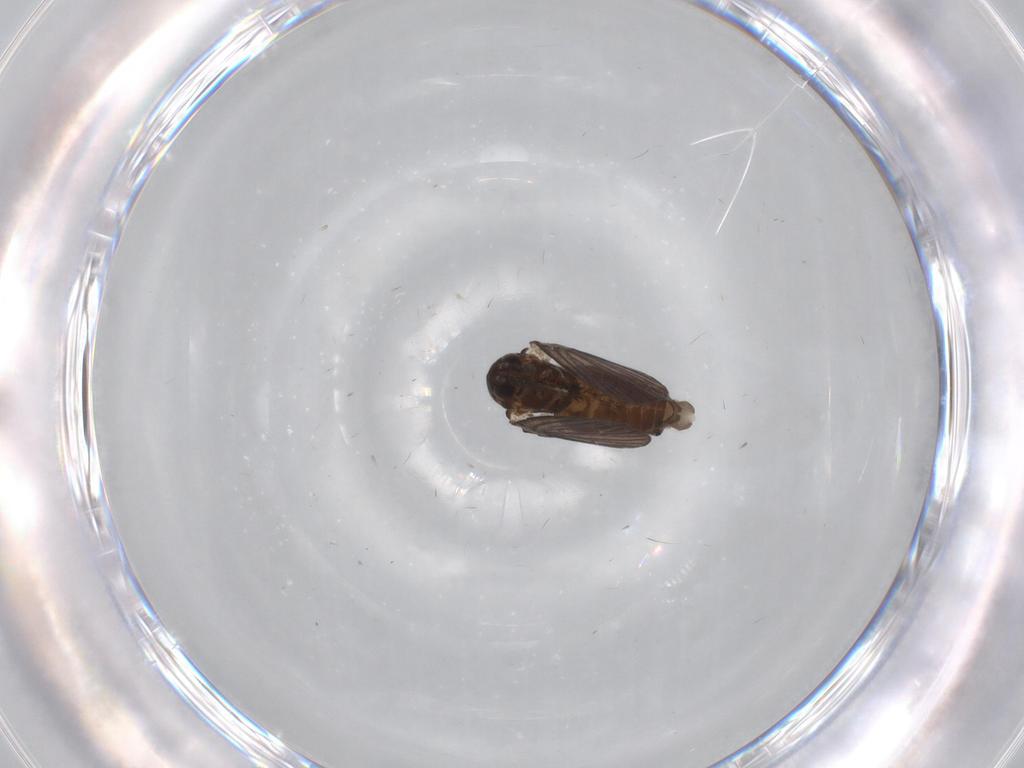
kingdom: Animalia
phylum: Arthropoda
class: Insecta
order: Diptera
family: Psychodidae
